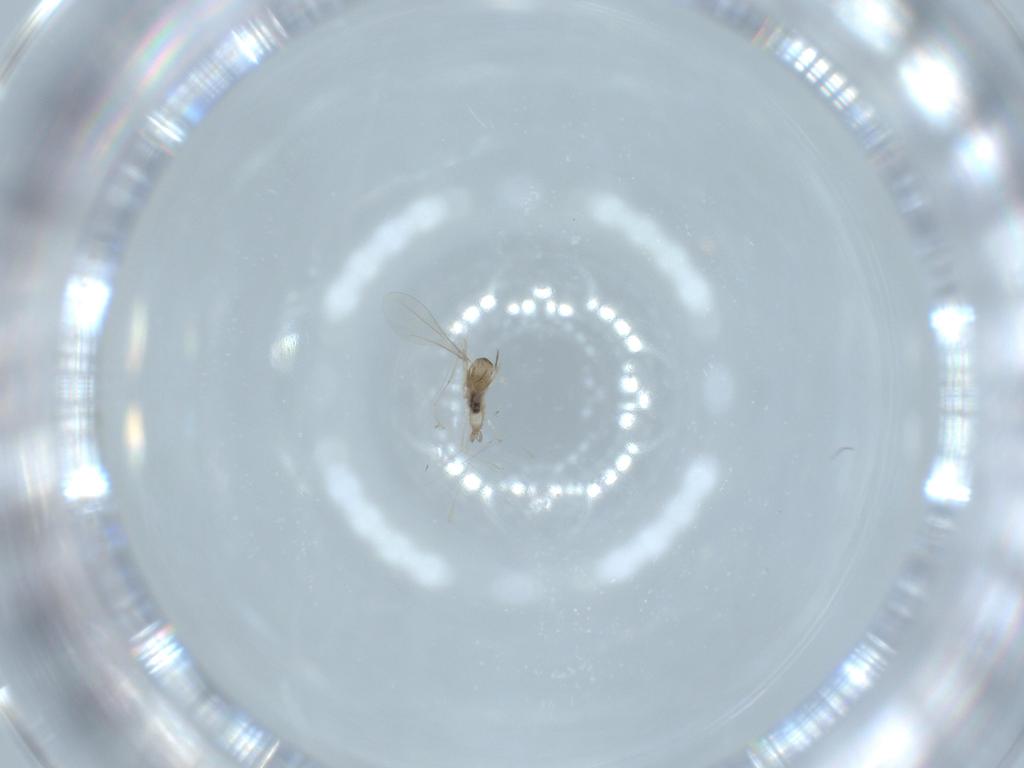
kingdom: Animalia
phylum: Arthropoda
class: Insecta
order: Diptera
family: Cecidomyiidae
